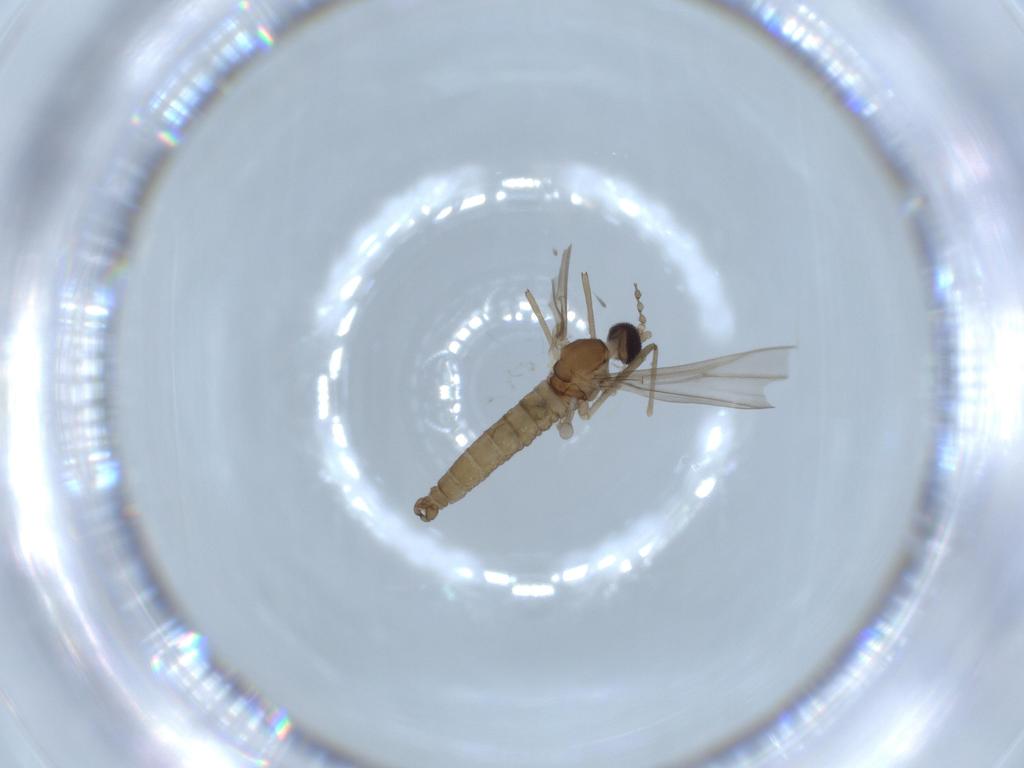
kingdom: Animalia
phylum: Arthropoda
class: Insecta
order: Diptera
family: Cecidomyiidae
